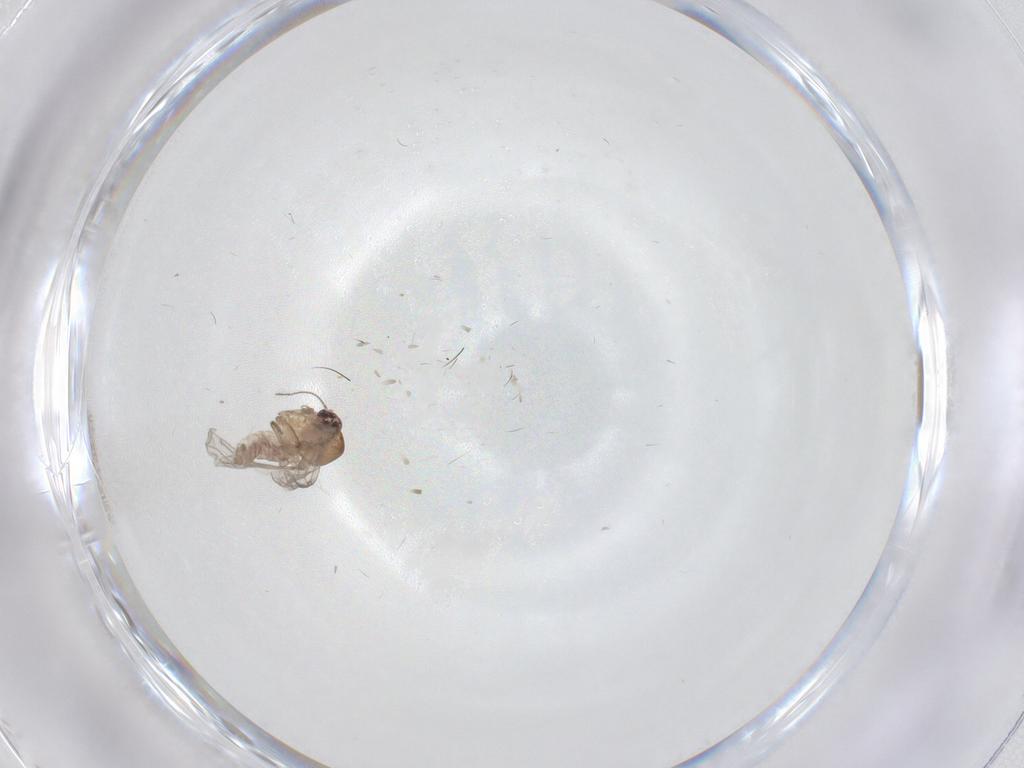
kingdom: Animalia
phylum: Arthropoda
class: Insecta
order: Diptera
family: Chironomidae
